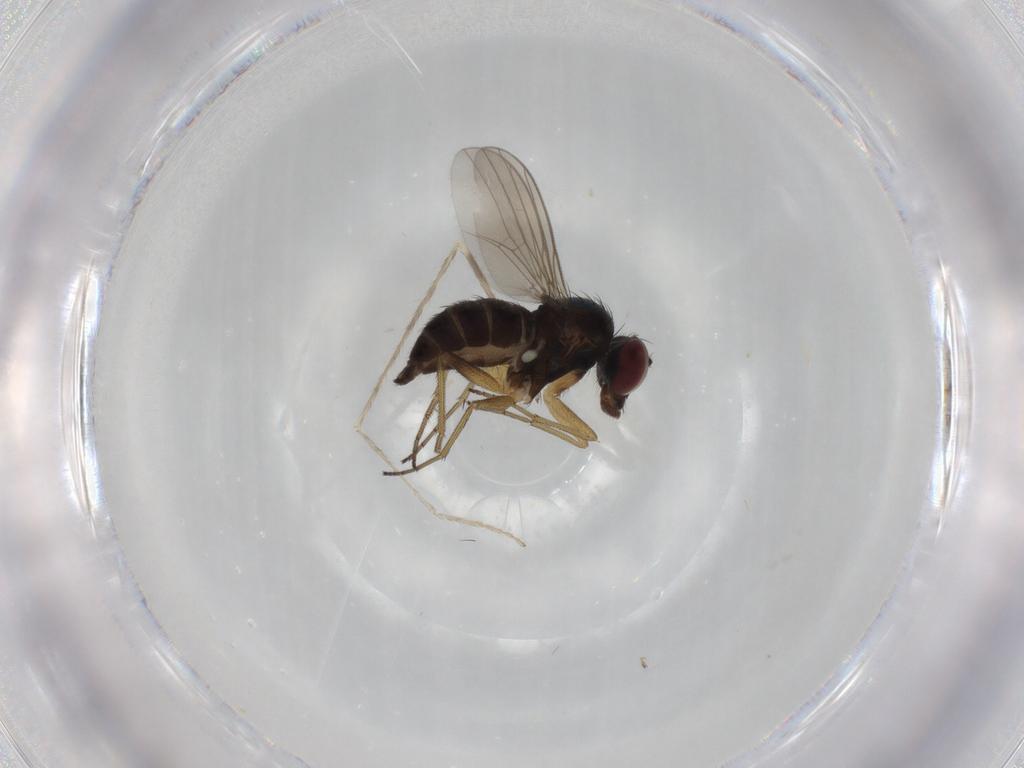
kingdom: Animalia
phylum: Arthropoda
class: Insecta
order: Diptera
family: Dolichopodidae
